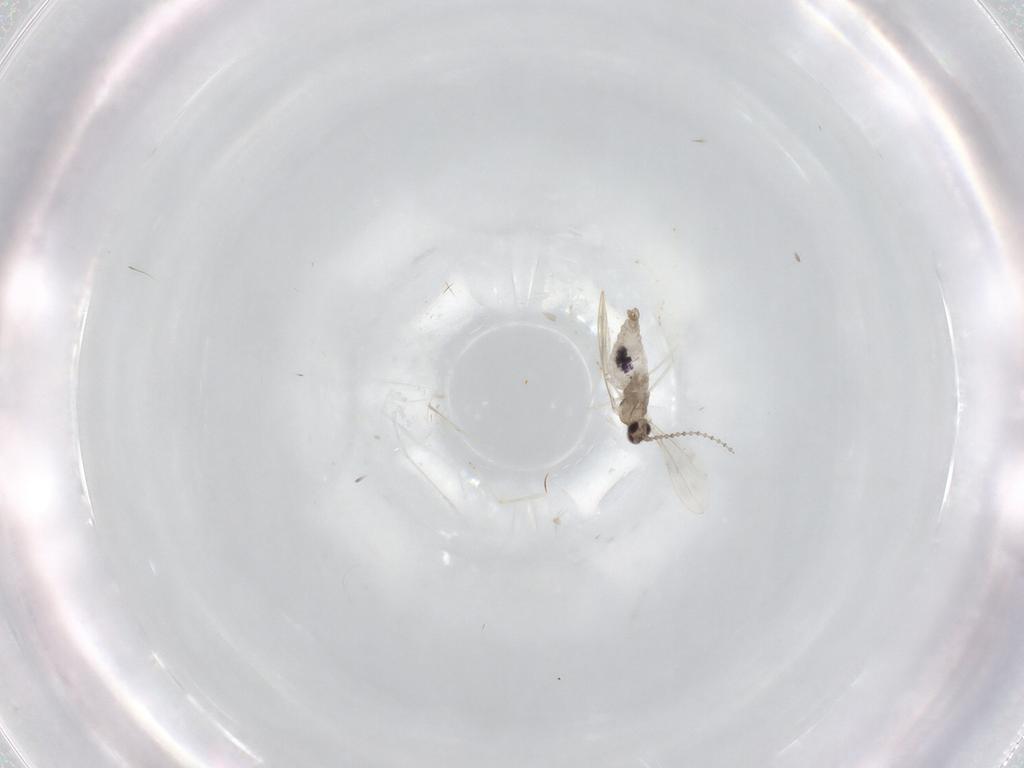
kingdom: Animalia
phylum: Arthropoda
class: Insecta
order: Diptera
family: Cecidomyiidae
